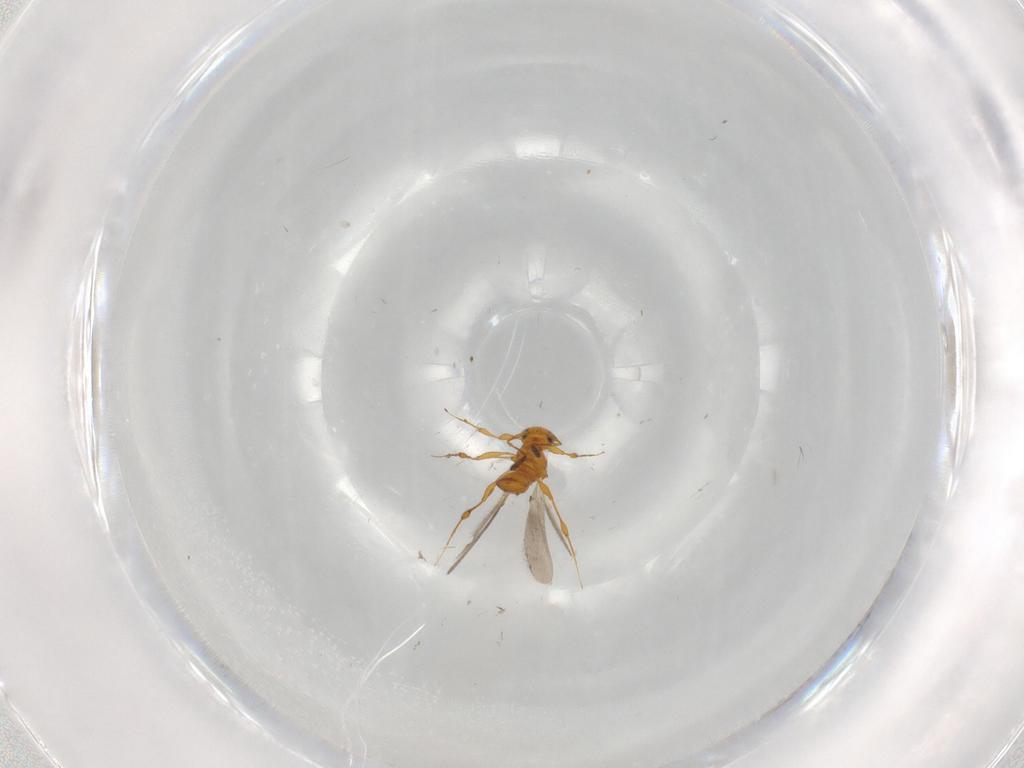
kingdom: Animalia
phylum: Arthropoda
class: Insecta
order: Hymenoptera
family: Platygastridae
